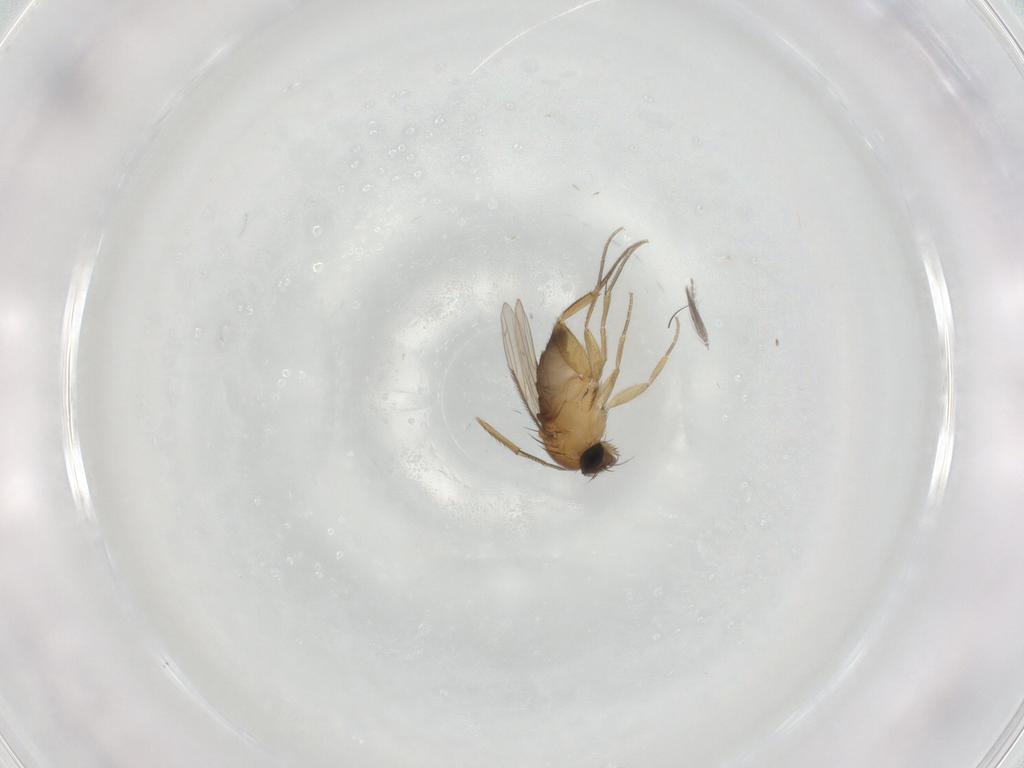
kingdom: Animalia
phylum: Arthropoda
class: Insecta
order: Diptera
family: Phoridae
